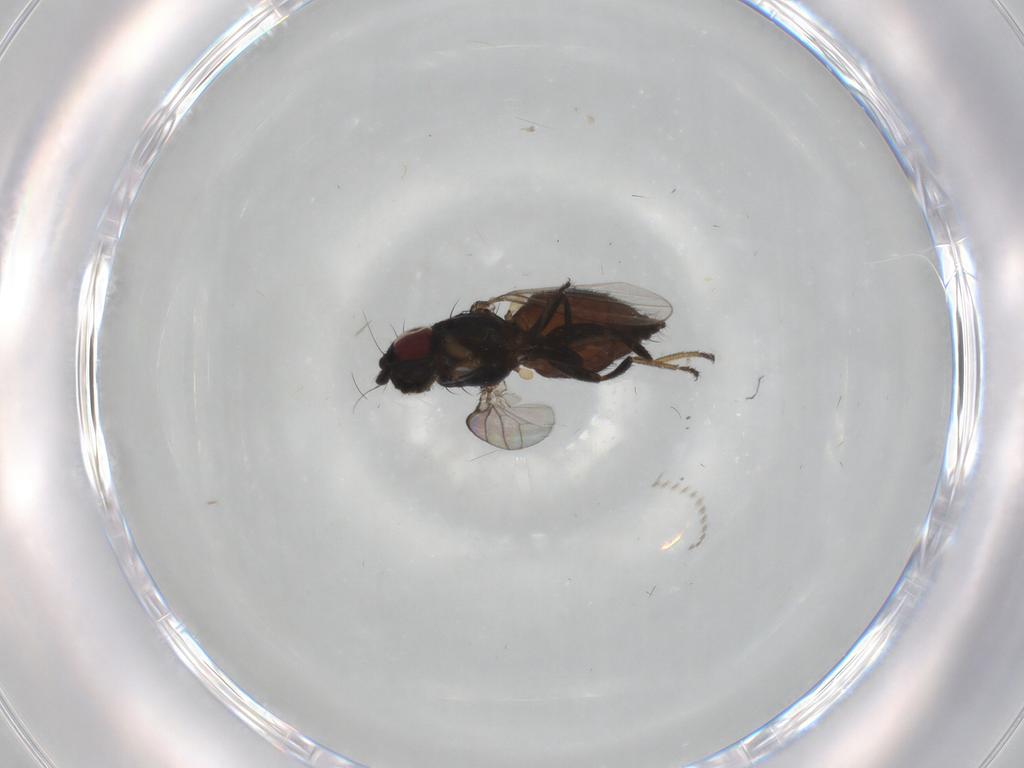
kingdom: Animalia
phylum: Arthropoda
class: Insecta
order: Diptera
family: Milichiidae
